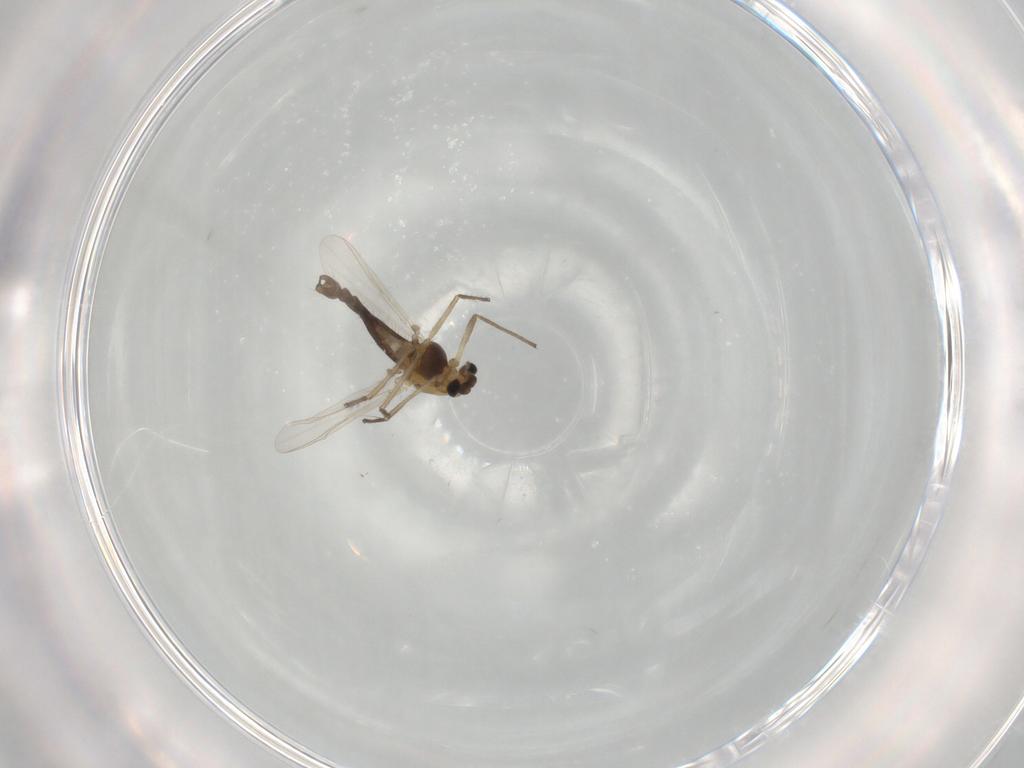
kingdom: Animalia
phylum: Arthropoda
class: Insecta
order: Diptera
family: Chironomidae
